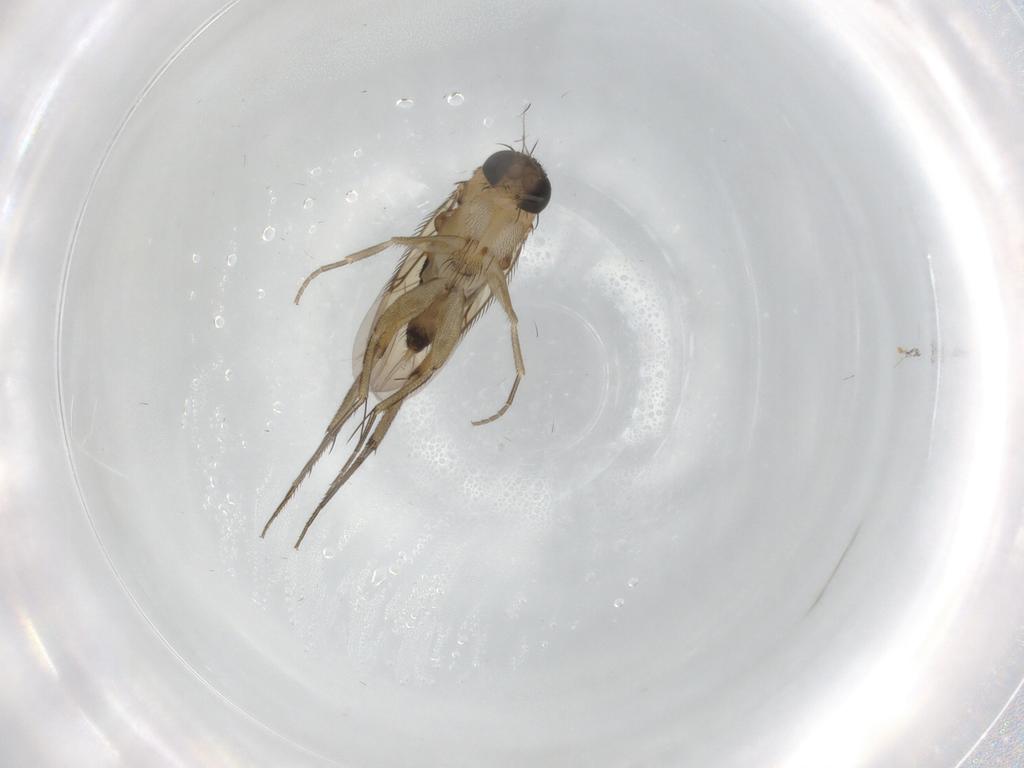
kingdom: Animalia
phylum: Arthropoda
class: Insecta
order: Diptera
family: Phoridae
